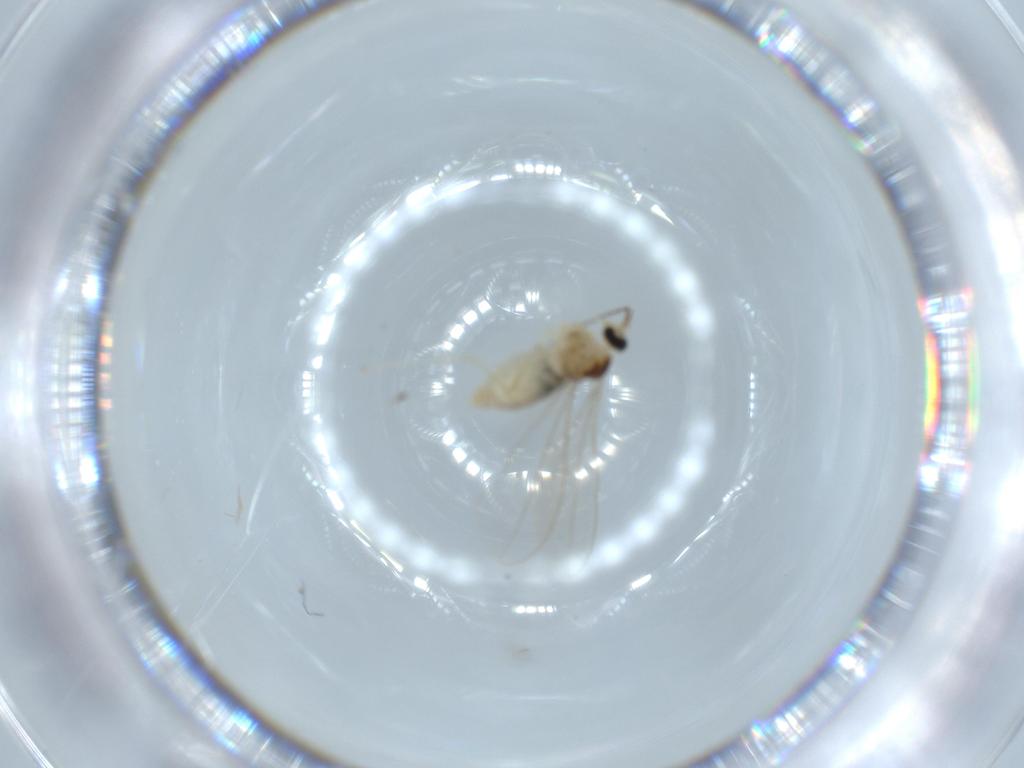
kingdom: Animalia
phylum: Arthropoda
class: Insecta
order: Diptera
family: Cecidomyiidae
